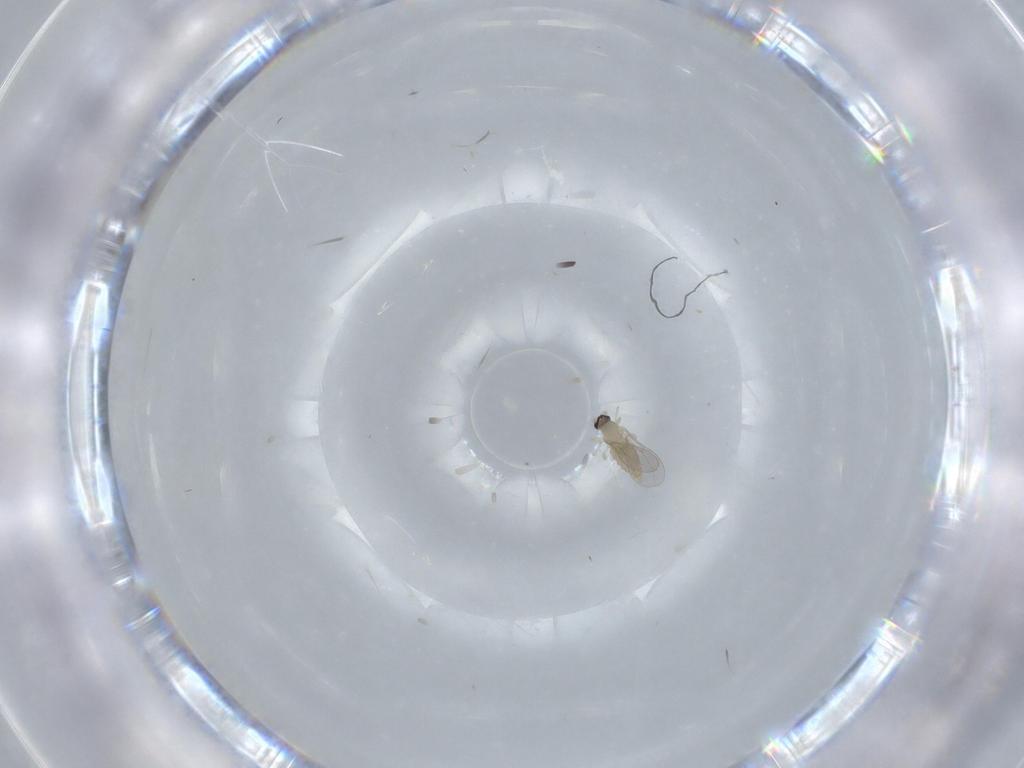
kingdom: Animalia
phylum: Arthropoda
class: Insecta
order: Diptera
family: Cecidomyiidae
